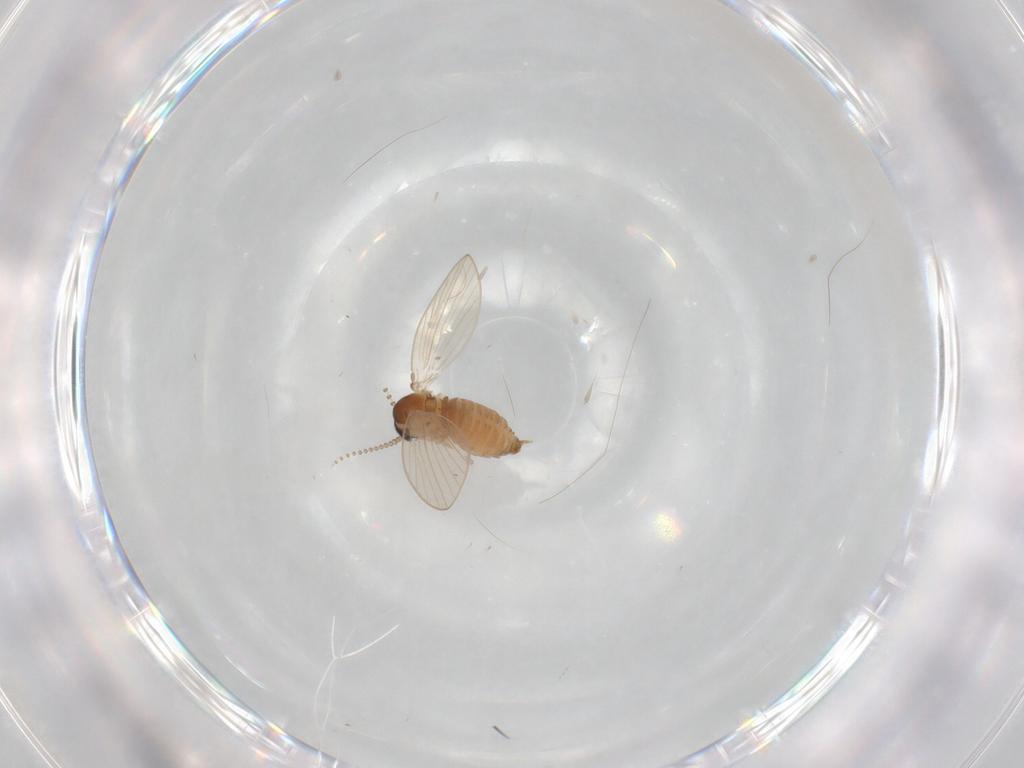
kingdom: Animalia
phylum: Arthropoda
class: Insecta
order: Diptera
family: Psychodidae
